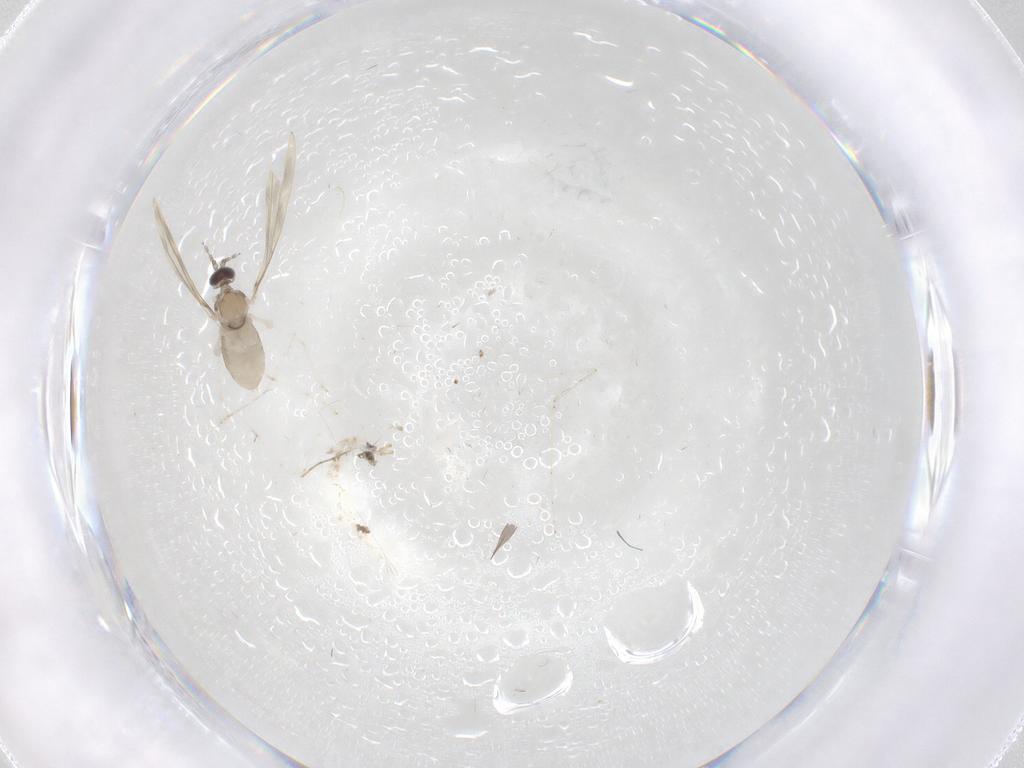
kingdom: Animalia
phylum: Arthropoda
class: Insecta
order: Diptera
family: Cecidomyiidae
